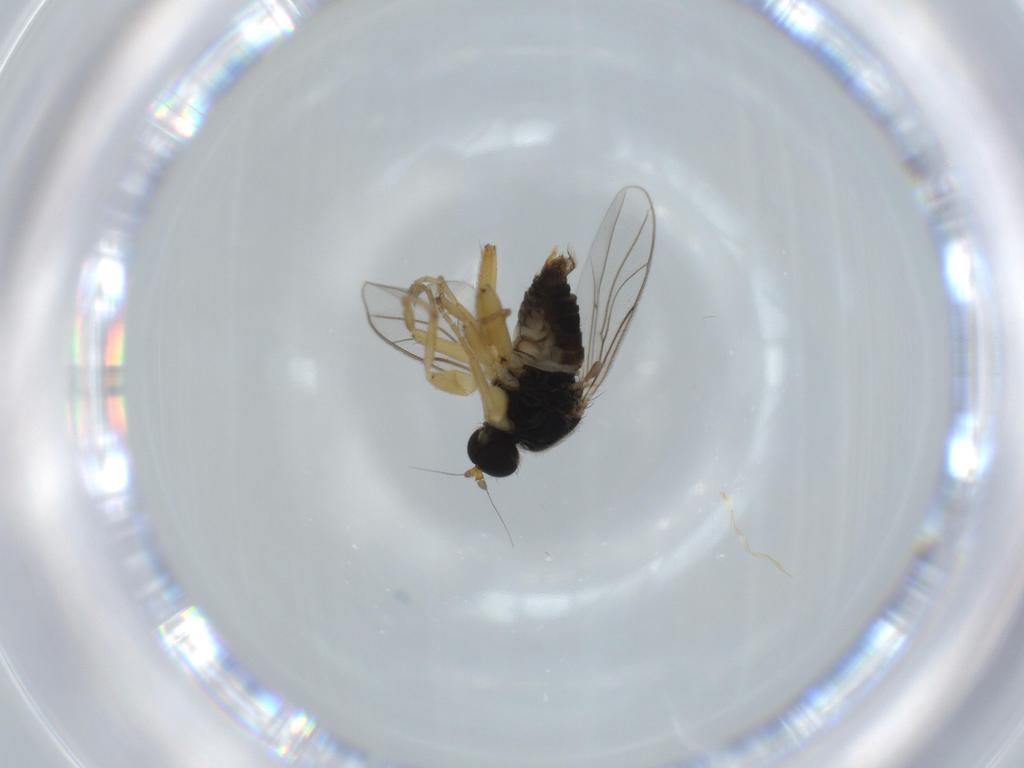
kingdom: Animalia
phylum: Arthropoda
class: Insecta
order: Diptera
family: Hybotidae
